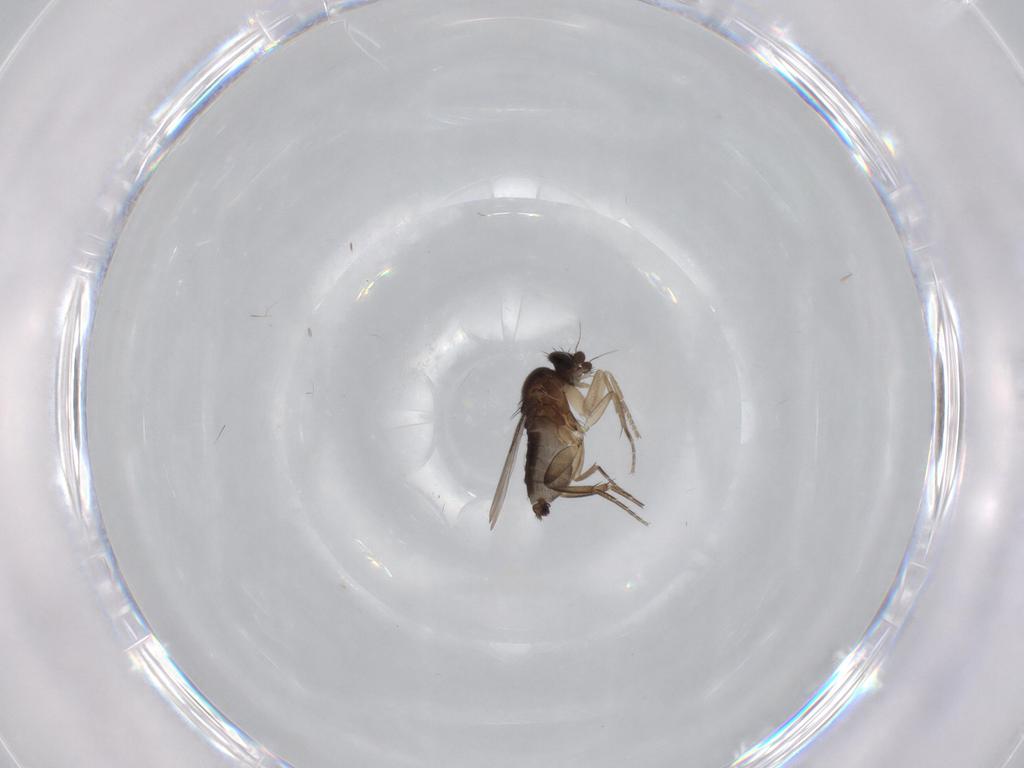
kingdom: Animalia
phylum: Arthropoda
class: Insecta
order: Diptera
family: Phoridae
